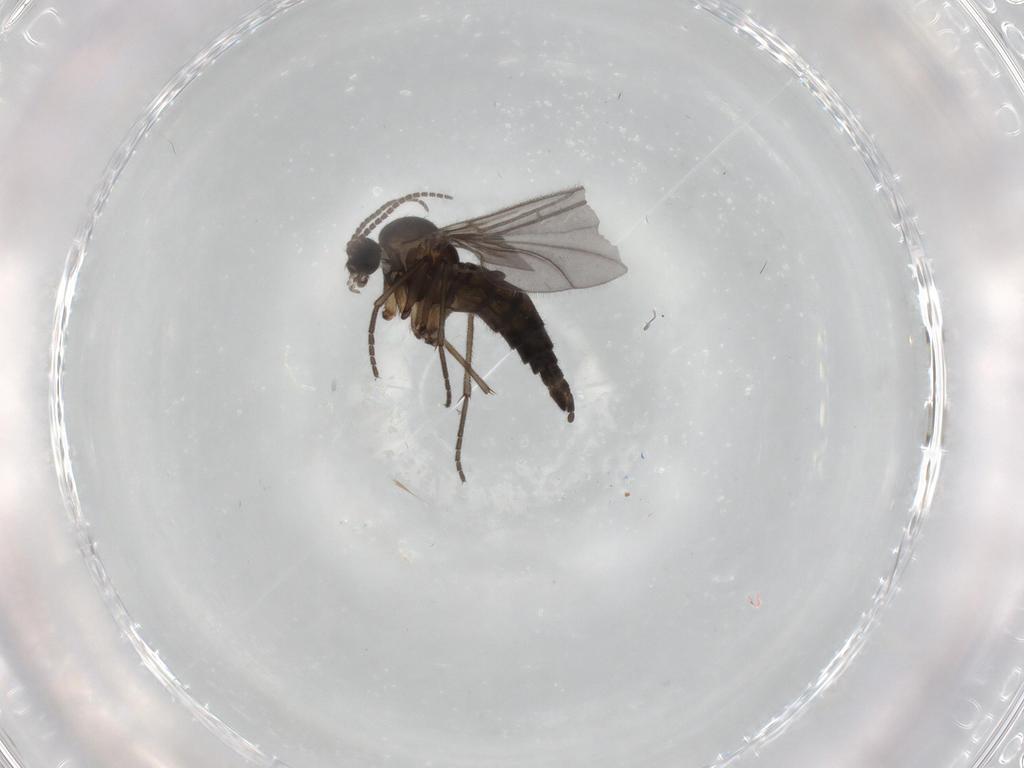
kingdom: Animalia
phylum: Arthropoda
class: Insecta
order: Diptera
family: Sciaridae
